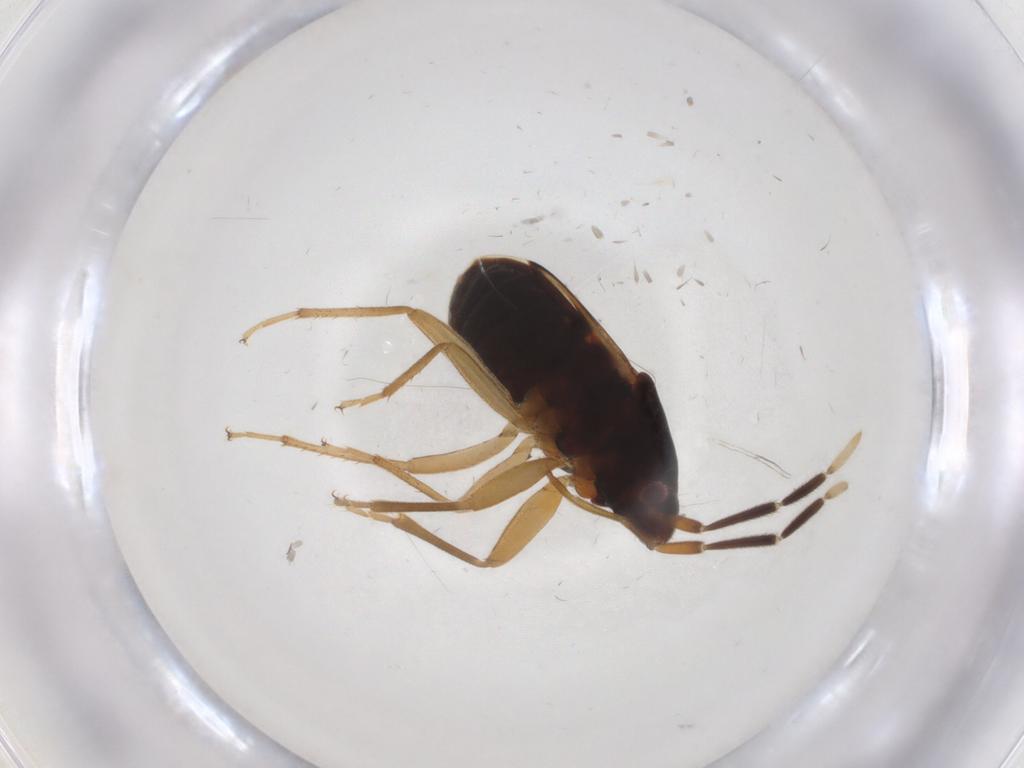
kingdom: Animalia
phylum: Arthropoda
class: Insecta
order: Hemiptera
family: Rhyparochromidae
